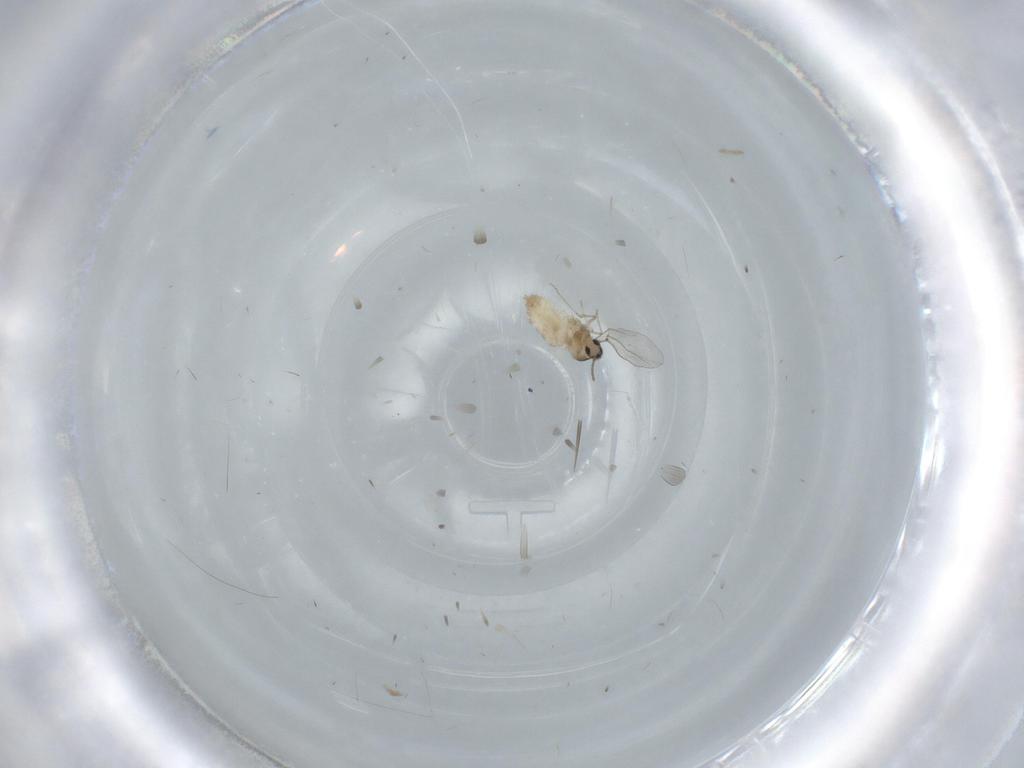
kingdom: Animalia
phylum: Arthropoda
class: Insecta
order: Diptera
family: Chironomidae
